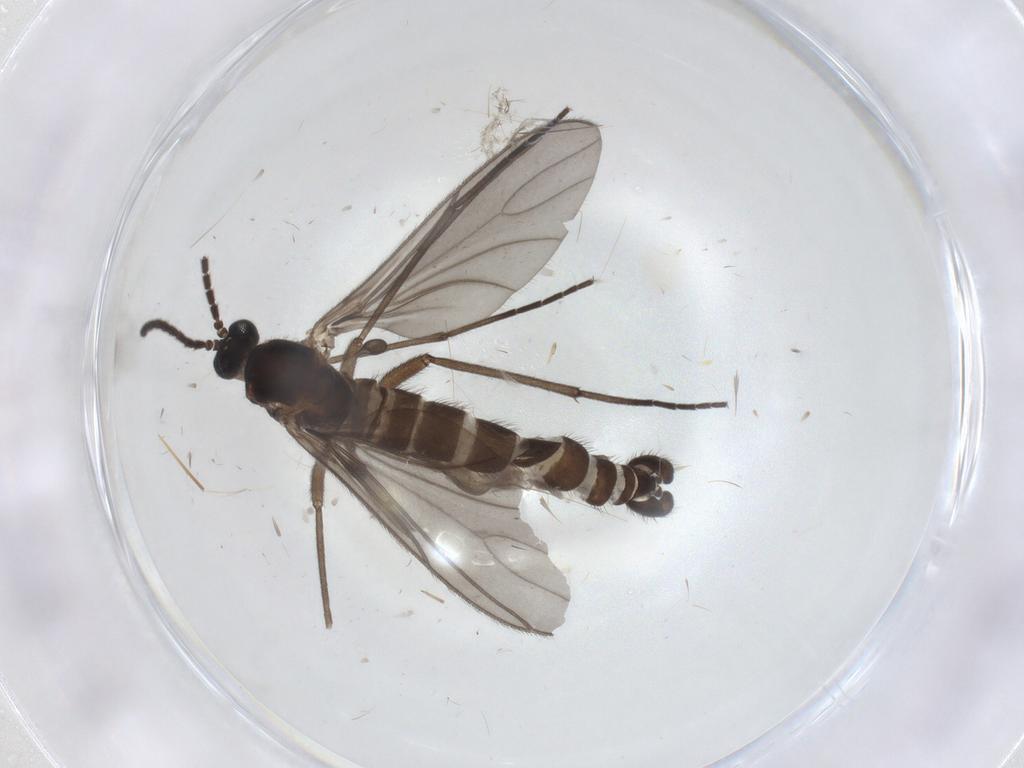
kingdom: Animalia
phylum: Arthropoda
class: Insecta
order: Diptera
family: Sciaridae
